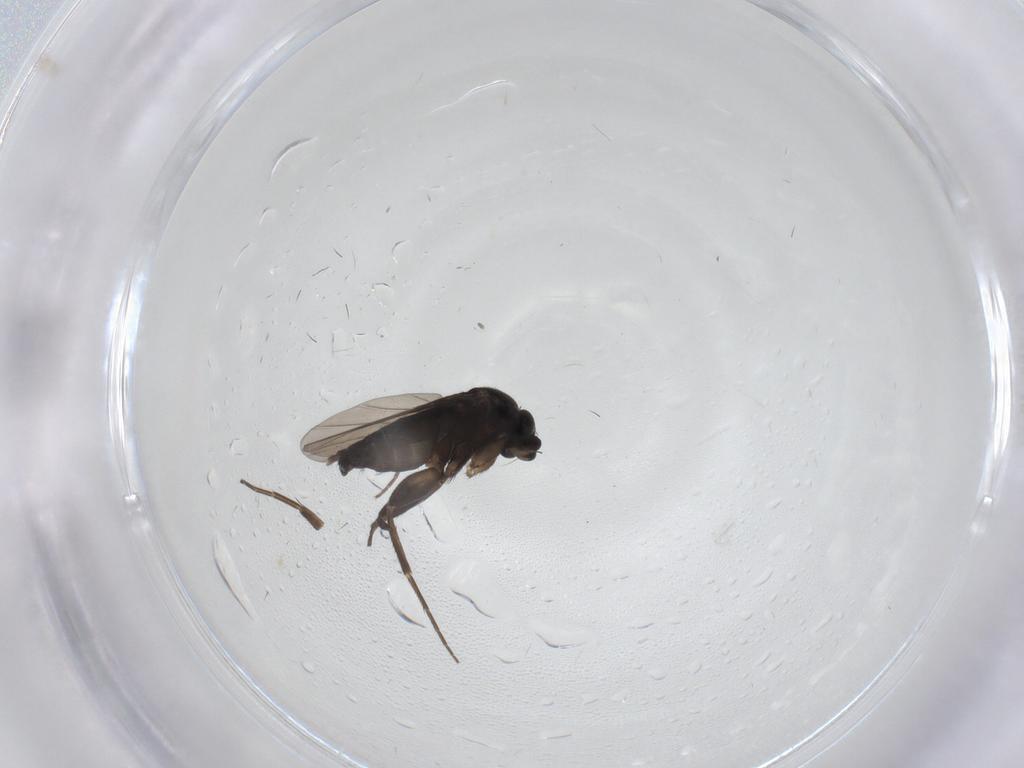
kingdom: Animalia
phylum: Arthropoda
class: Insecta
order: Diptera
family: Phoridae
